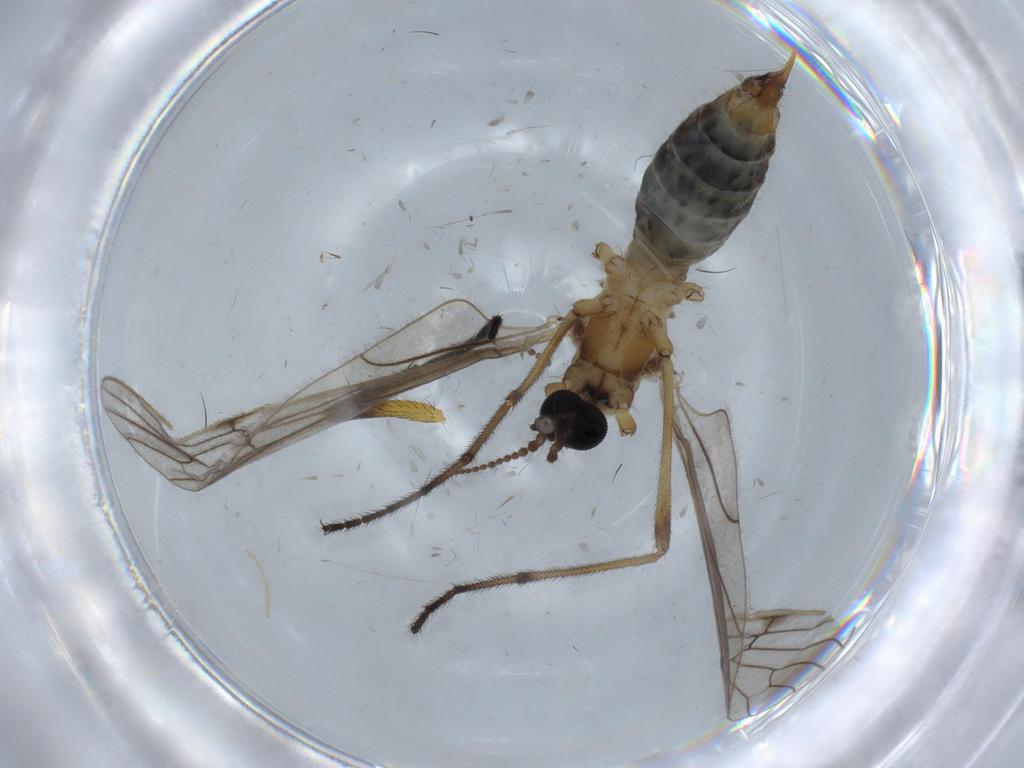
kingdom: Animalia
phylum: Arthropoda
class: Insecta
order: Diptera
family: Limoniidae
